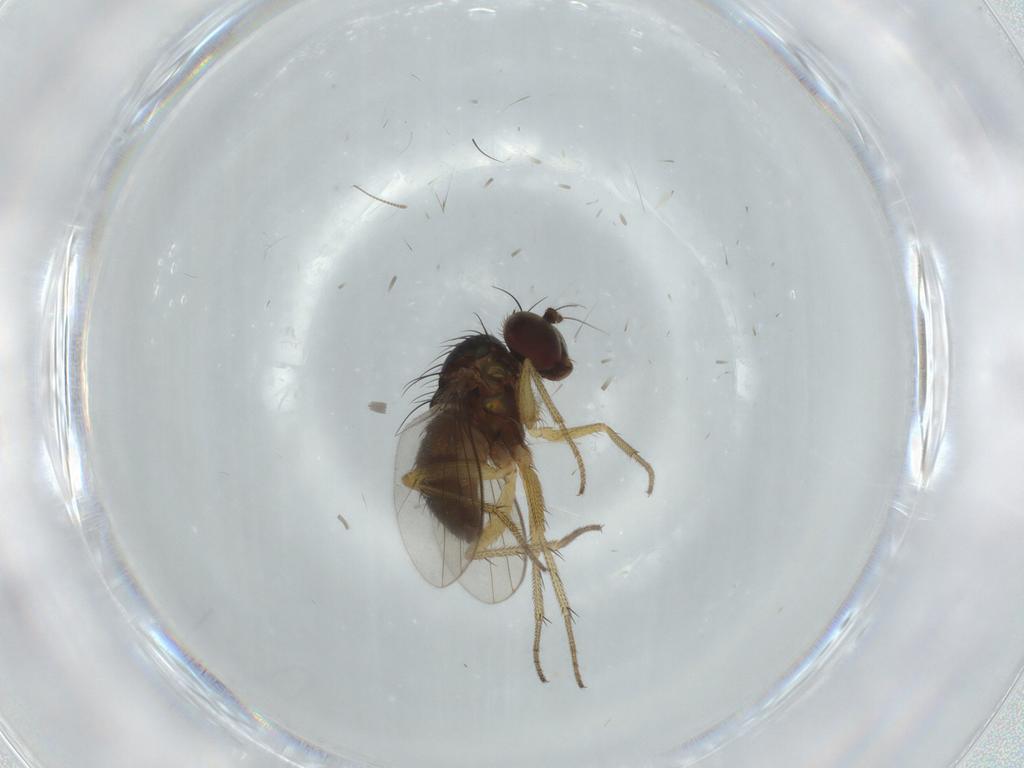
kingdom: Animalia
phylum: Arthropoda
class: Insecta
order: Diptera
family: Dolichopodidae
